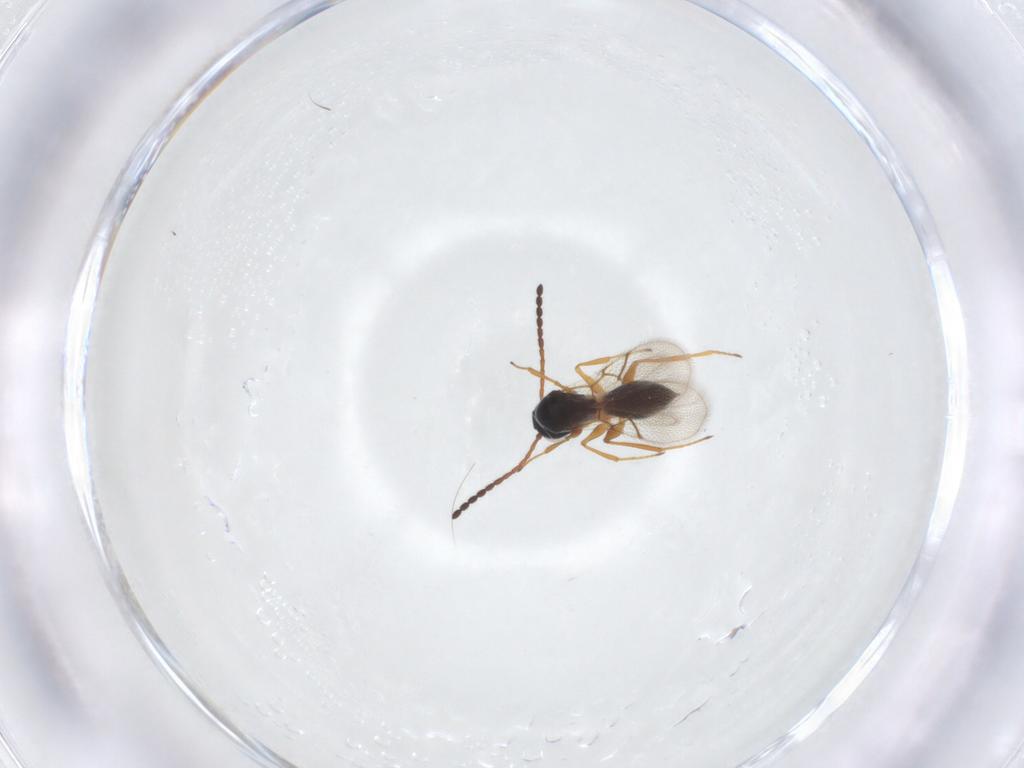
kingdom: Animalia
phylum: Arthropoda
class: Insecta
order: Hymenoptera
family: Figitidae
